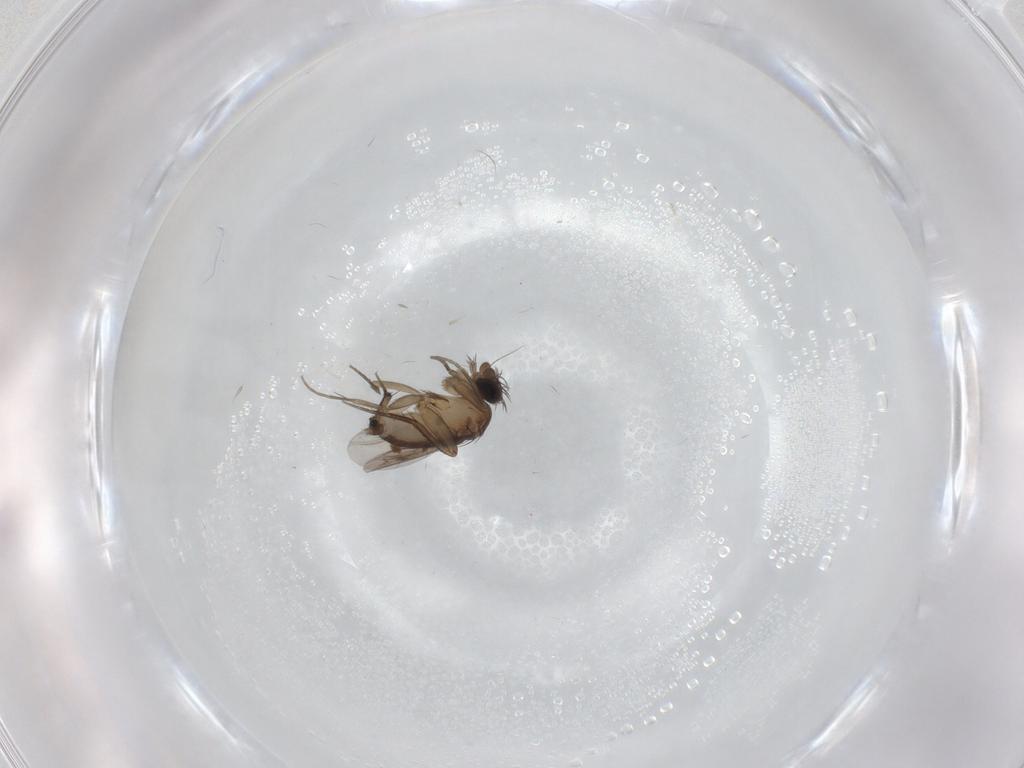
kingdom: Animalia
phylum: Arthropoda
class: Insecta
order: Diptera
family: Phoridae
